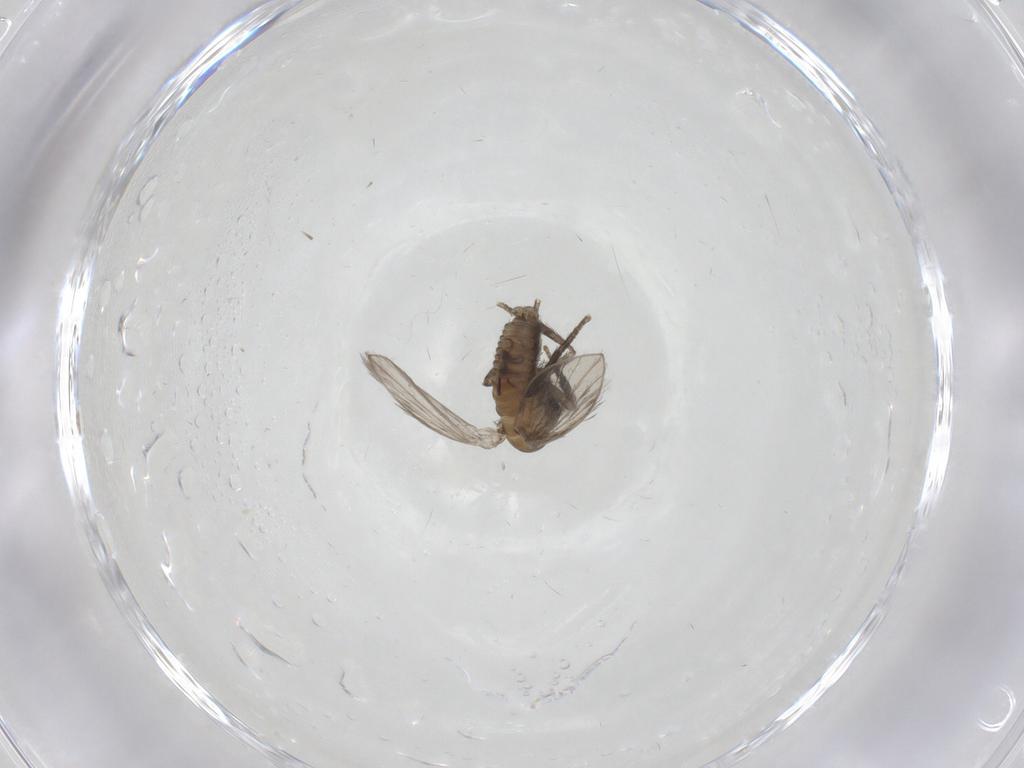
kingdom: Animalia
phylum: Arthropoda
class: Insecta
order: Diptera
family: Psychodidae
